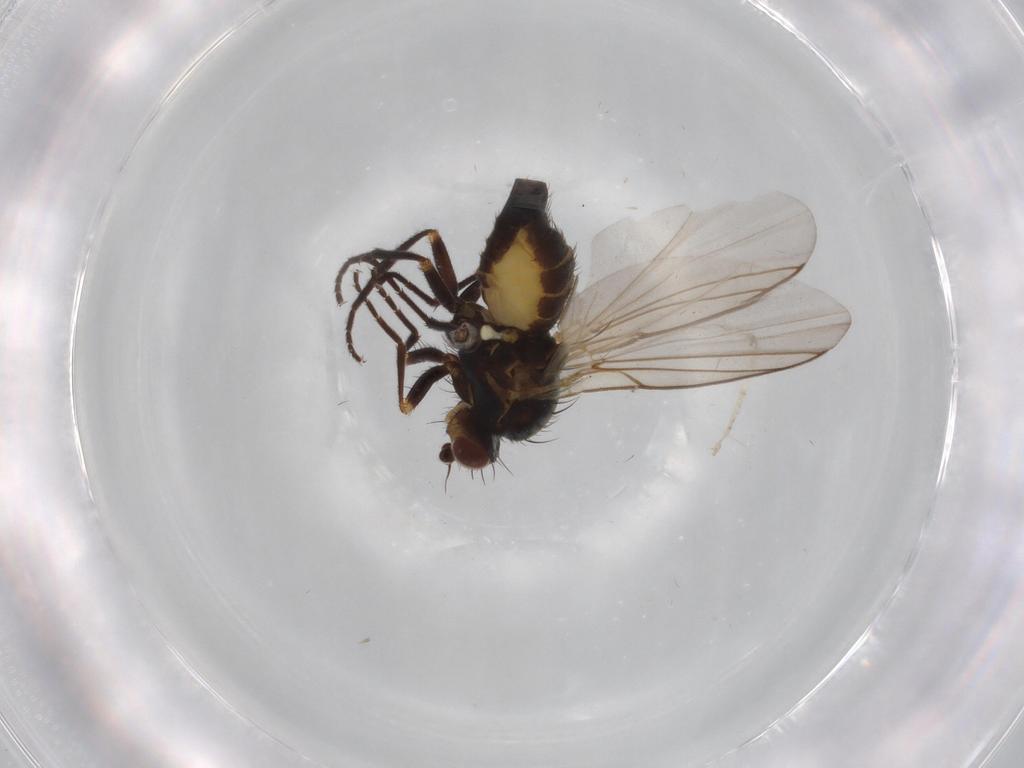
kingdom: Animalia
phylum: Arthropoda
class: Insecta
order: Diptera
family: Agromyzidae
